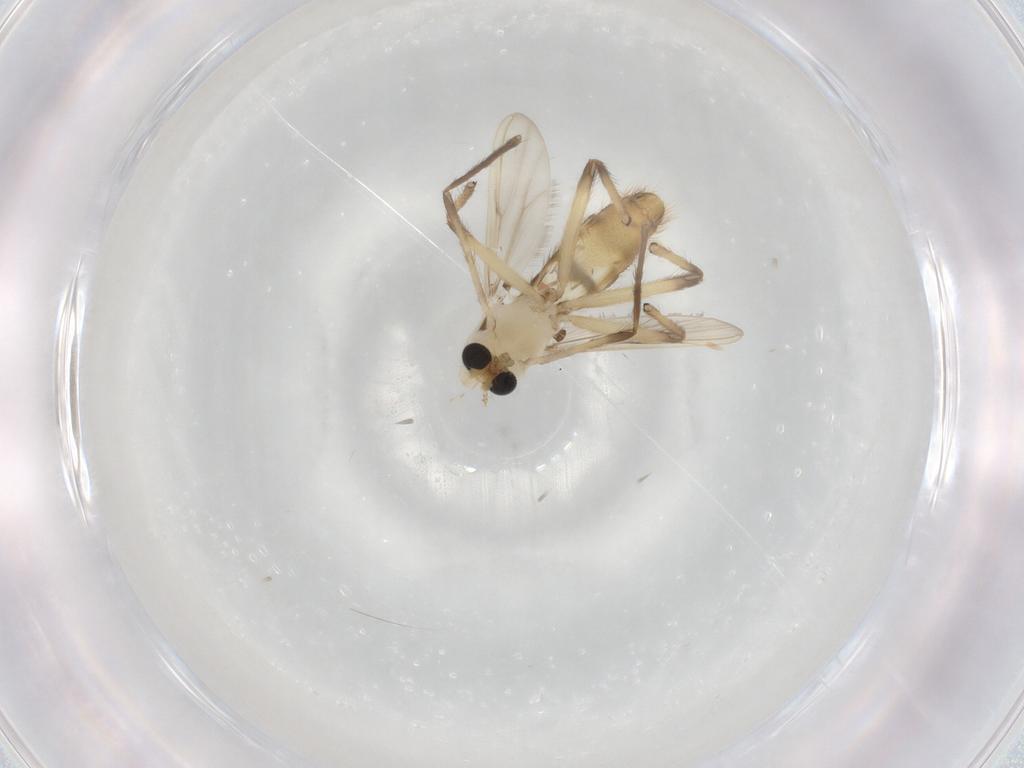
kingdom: Animalia
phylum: Arthropoda
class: Insecta
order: Diptera
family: Chironomidae
